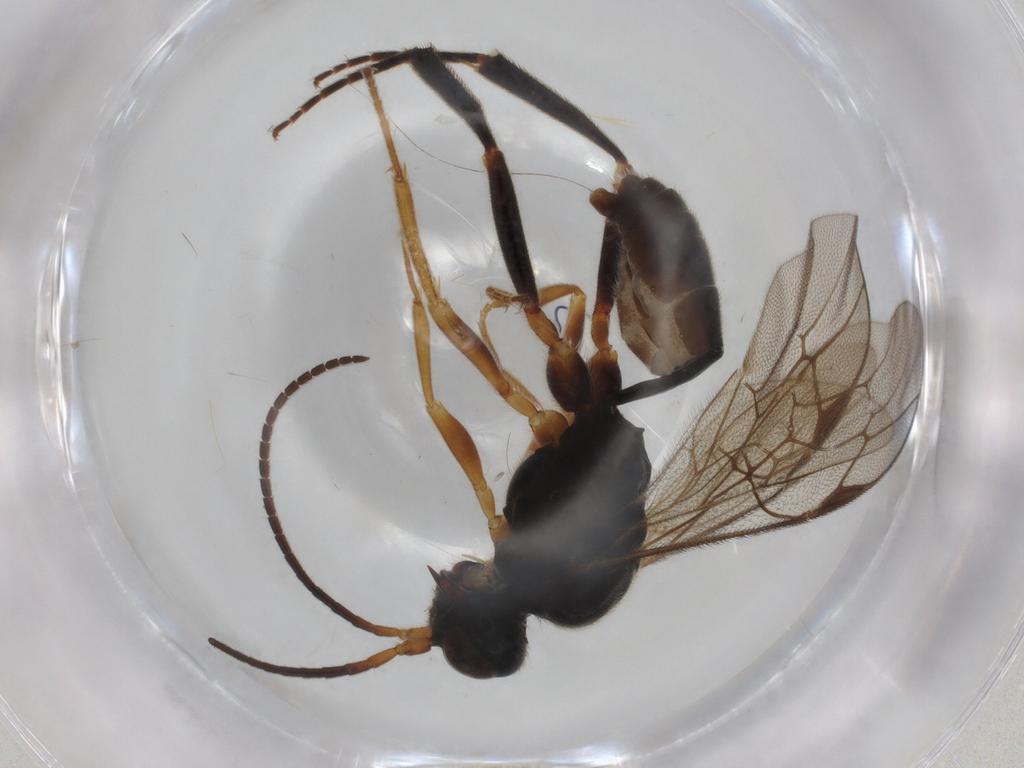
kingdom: Animalia
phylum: Arthropoda
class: Insecta
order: Hymenoptera
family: Ichneumonidae
